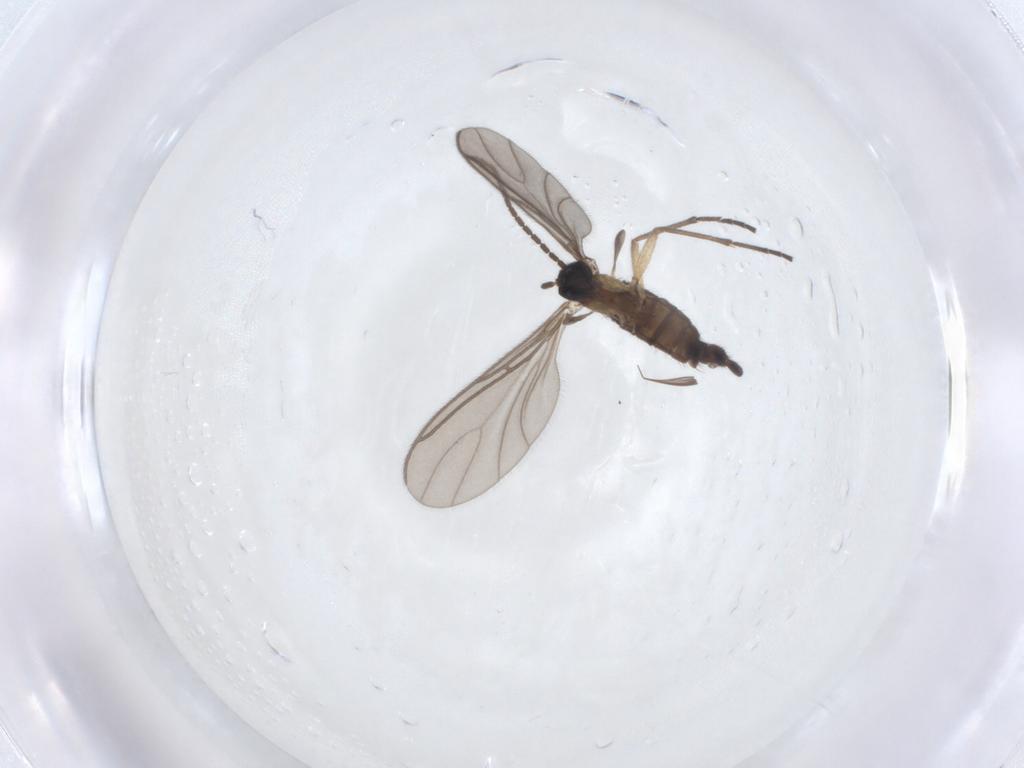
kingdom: Animalia
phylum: Arthropoda
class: Insecta
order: Diptera
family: Sciaridae
